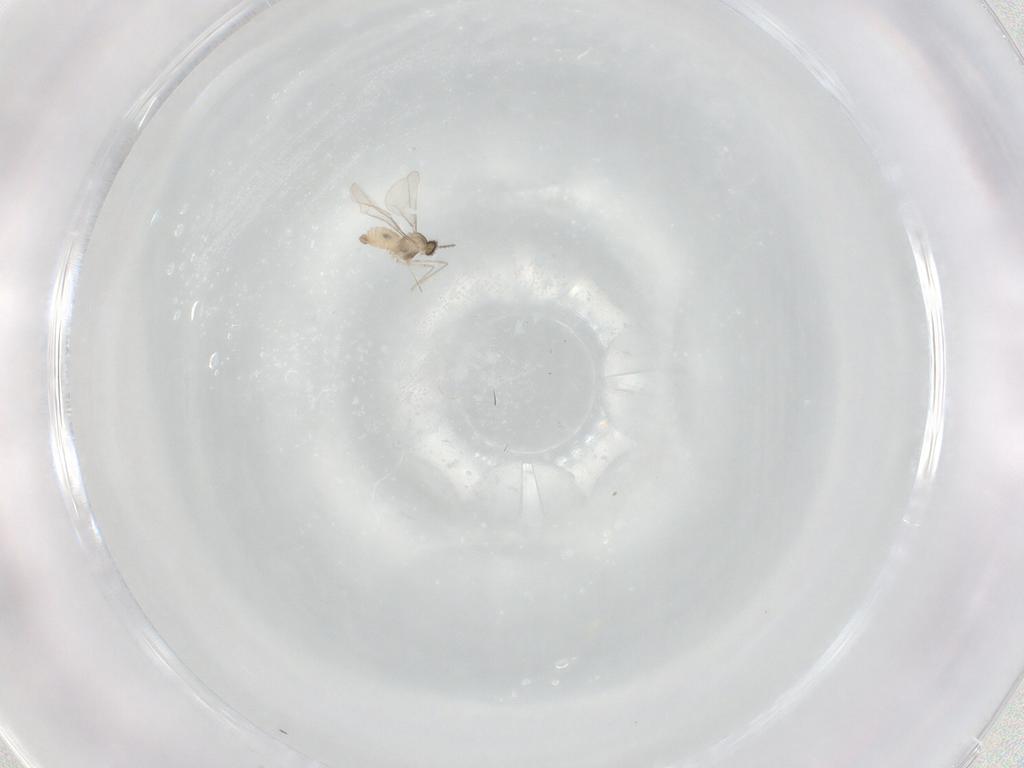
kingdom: Animalia
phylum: Arthropoda
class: Insecta
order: Diptera
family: Cecidomyiidae
